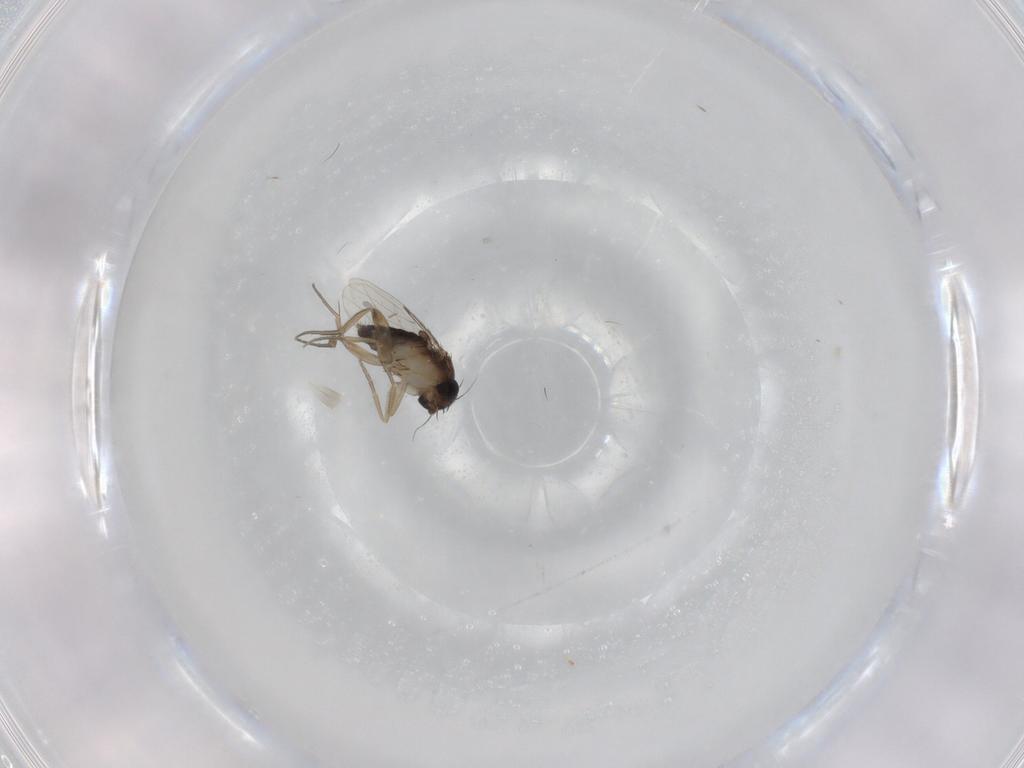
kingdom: Animalia
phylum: Arthropoda
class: Insecta
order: Diptera
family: Phoridae
